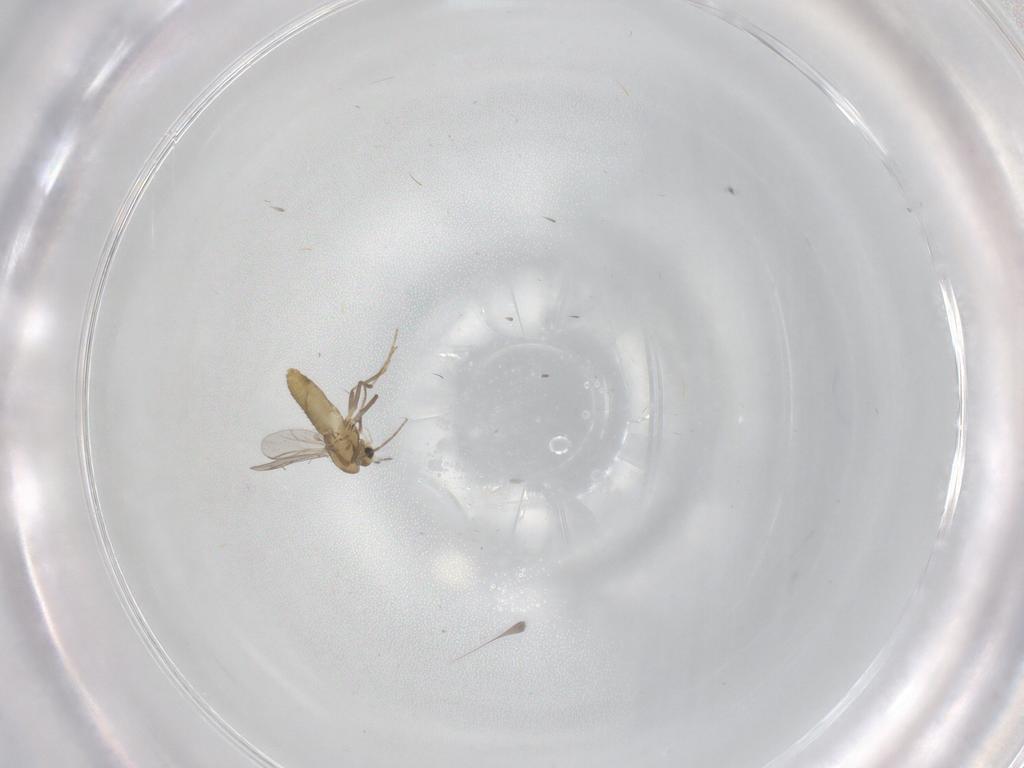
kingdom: Animalia
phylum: Arthropoda
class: Insecta
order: Diptera
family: Chironomidae
